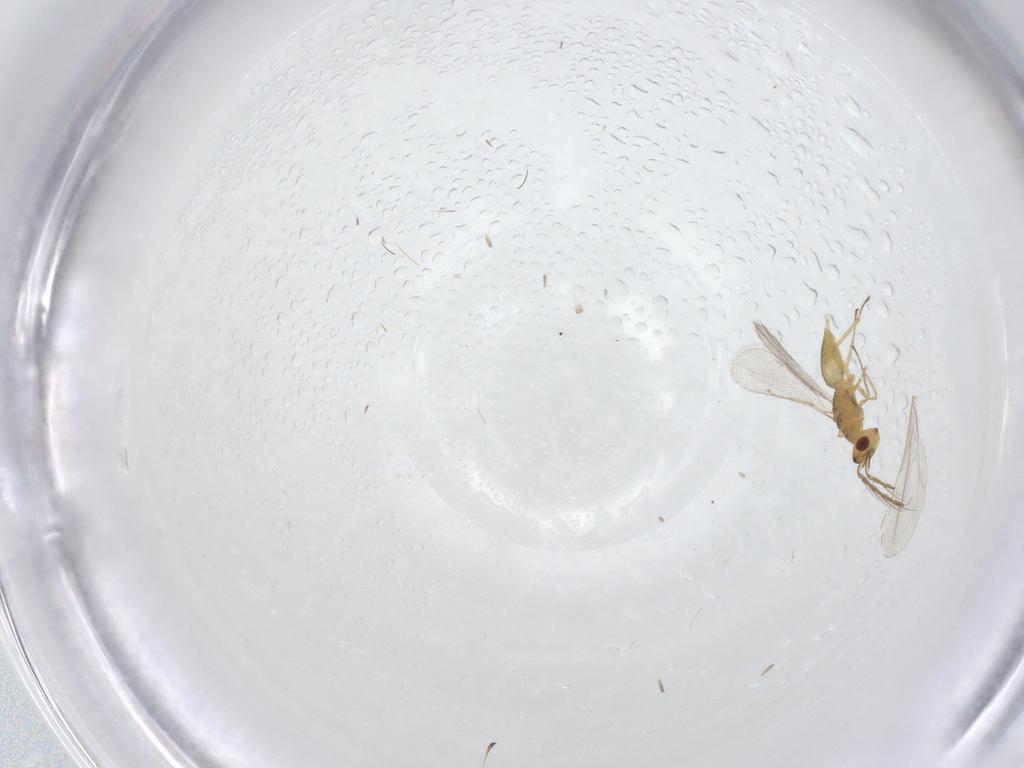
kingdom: Animalia
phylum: Arthropoda
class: Insecta
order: Hymenoptera
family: Eulophidae
